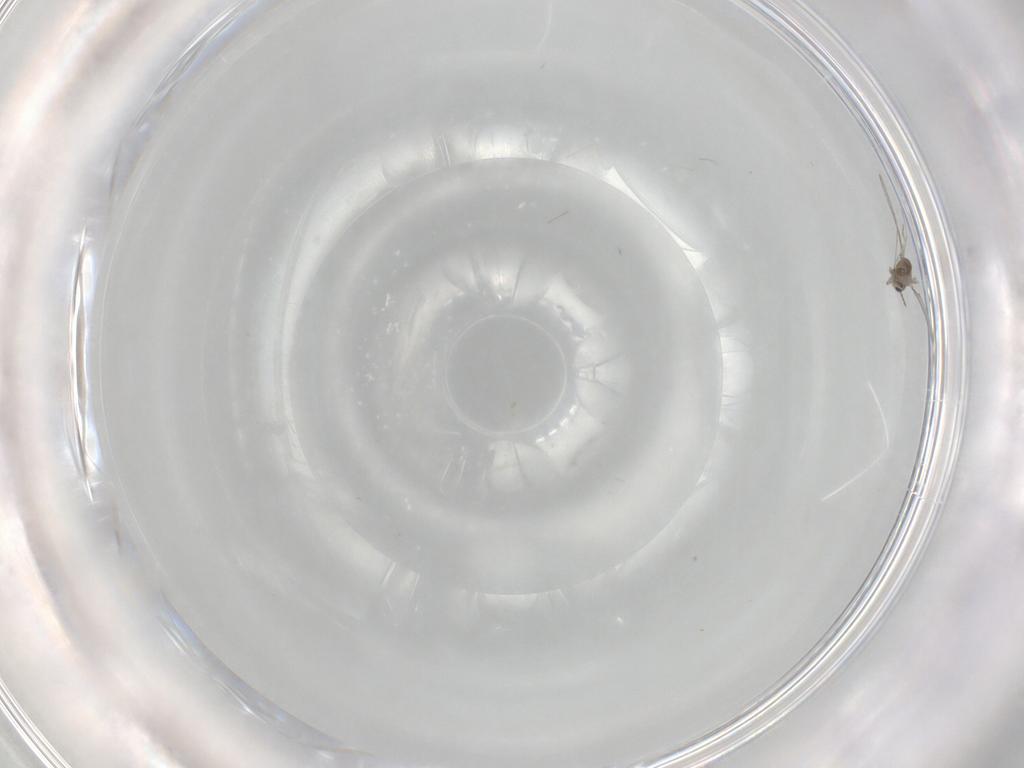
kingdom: Animalia
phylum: Arthropoda
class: Insecta
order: Diptera
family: Cecidomyiidae
